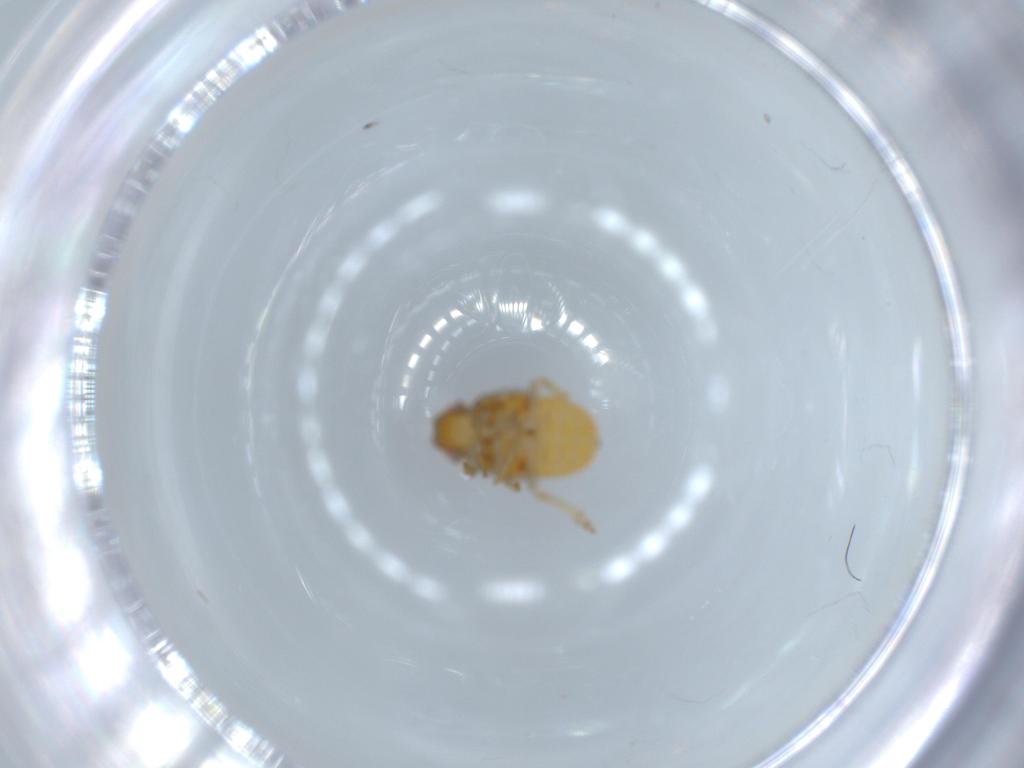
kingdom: Animalia
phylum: Arthropoda
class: Insecta
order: Hemiptera
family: Issidae
